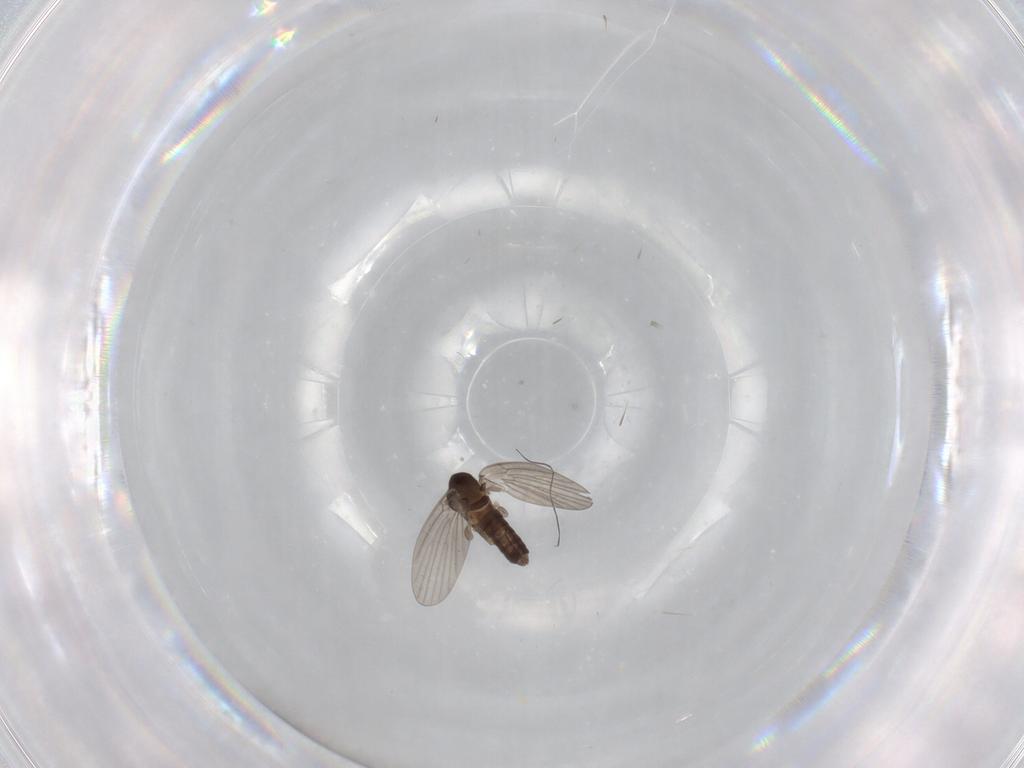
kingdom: Animalia
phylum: Arthropoda
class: Insecta
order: Diptera
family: Psychodidae
